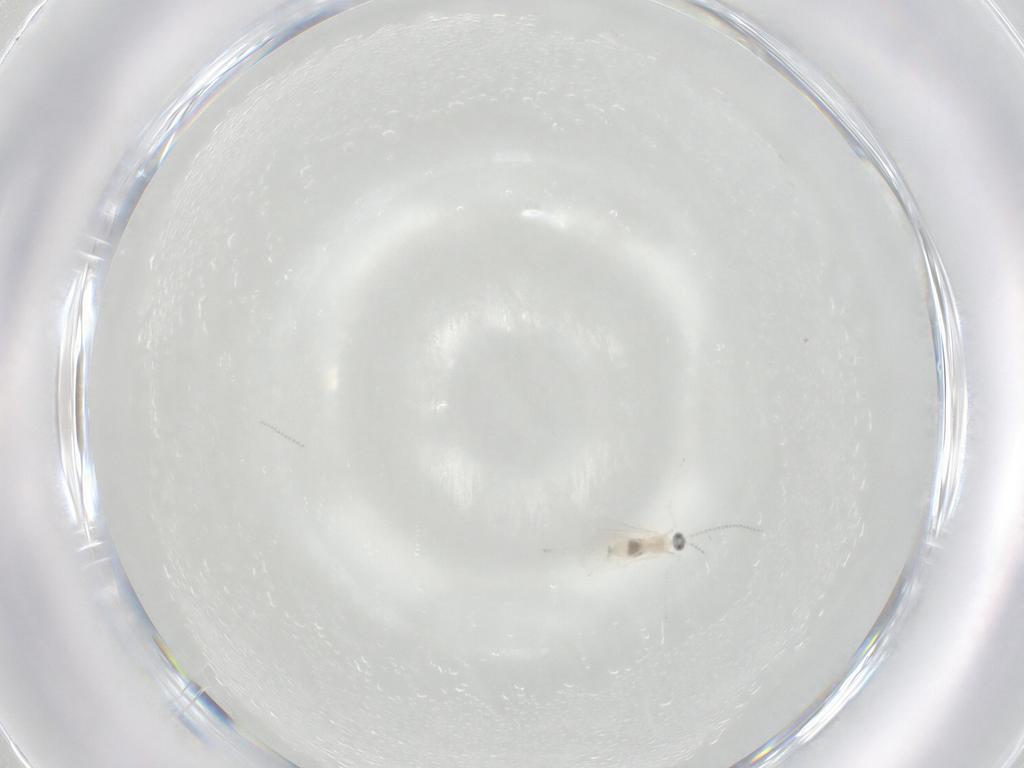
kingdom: Animalia
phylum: Arthropoda
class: Insecta
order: Diptera
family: Cecidomyiidae
